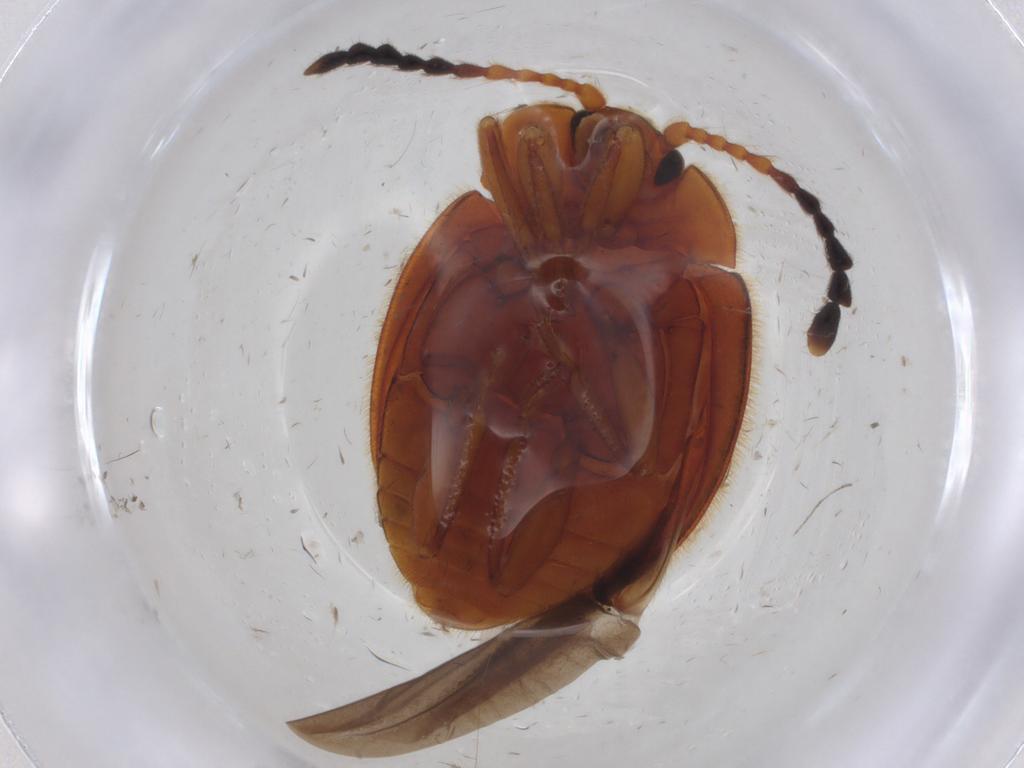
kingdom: Animalia
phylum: Arthropoda
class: Insecta
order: Coleoptera
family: Endomychidae
